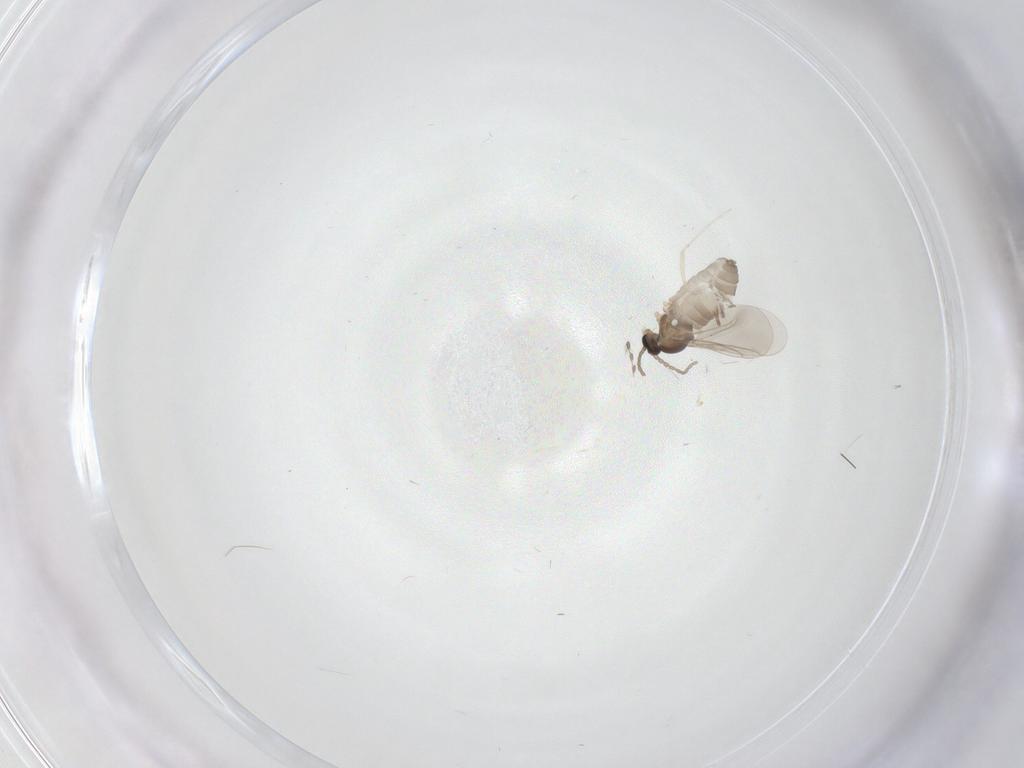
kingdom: Animalia
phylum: Arthropoda
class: Insecta
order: Diptera
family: Cecidomyiidae
